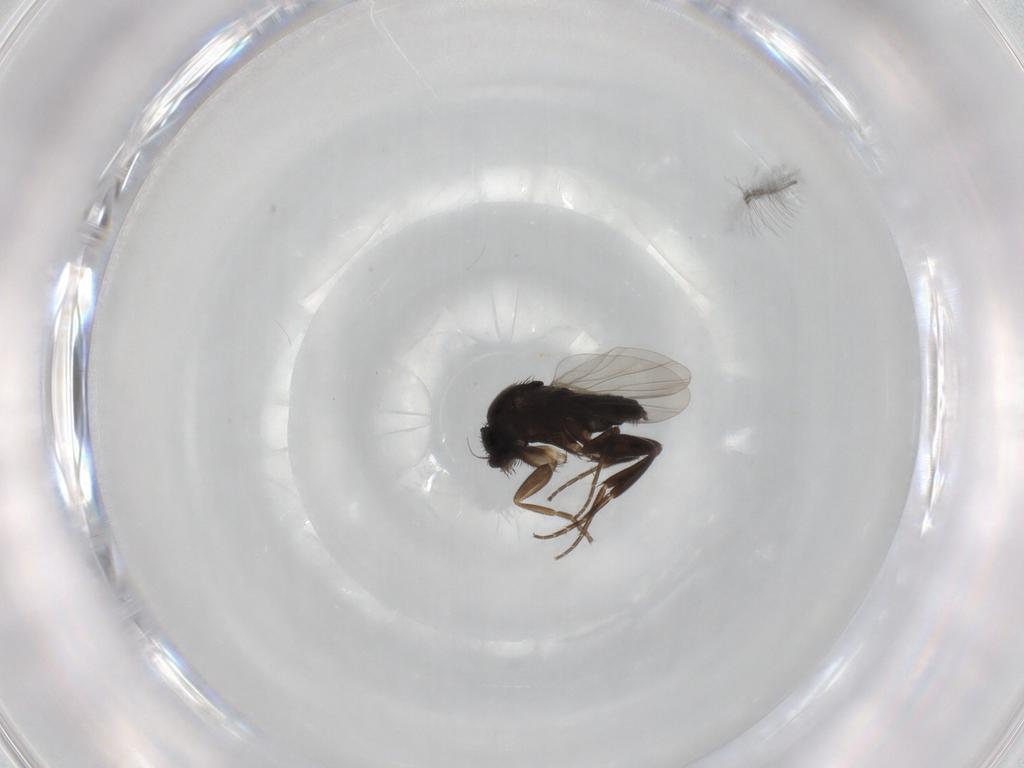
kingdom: Animalia
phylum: Arthropoda
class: Insecta
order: Diptera
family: Phoridae
